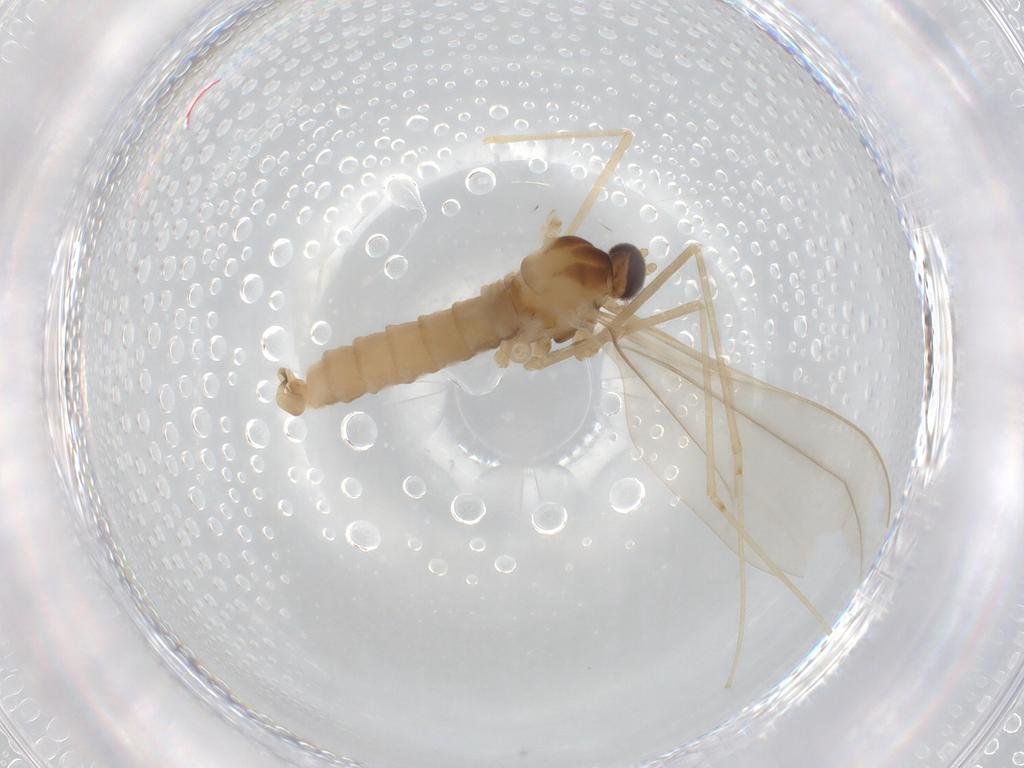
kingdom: Animalia
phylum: Arthropoda
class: Insecta
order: Diptera
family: Cecidomyiidae
